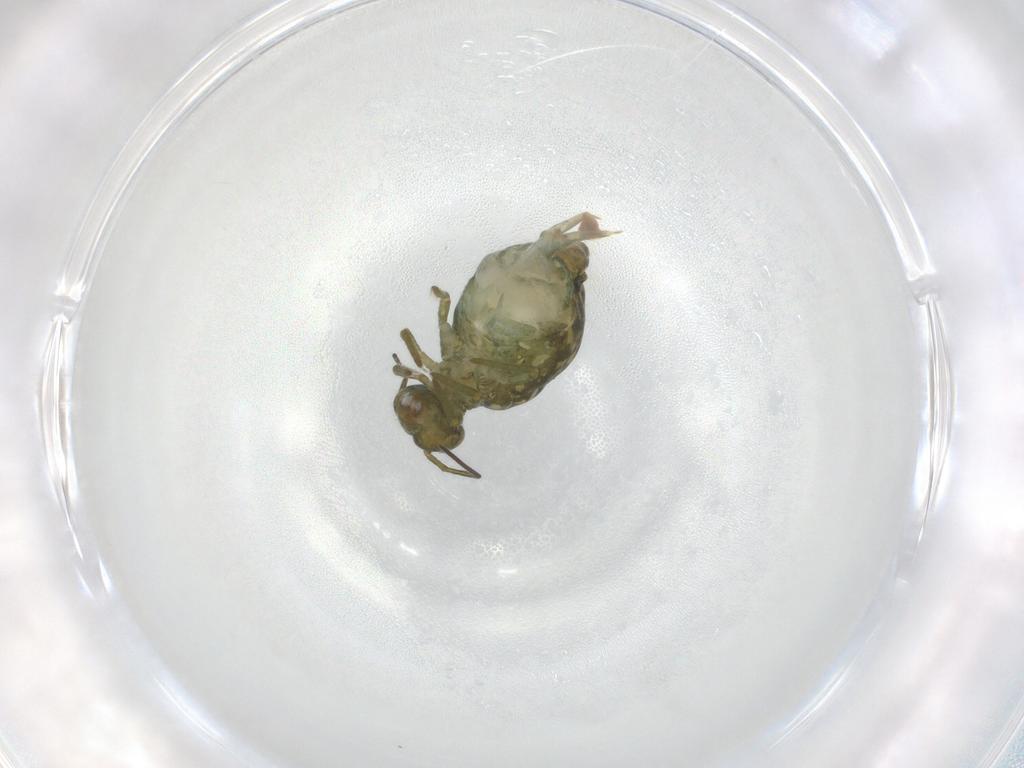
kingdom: Animalia
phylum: Arthropoda
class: Collembola
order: Symphypleona
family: Sminthuridae
